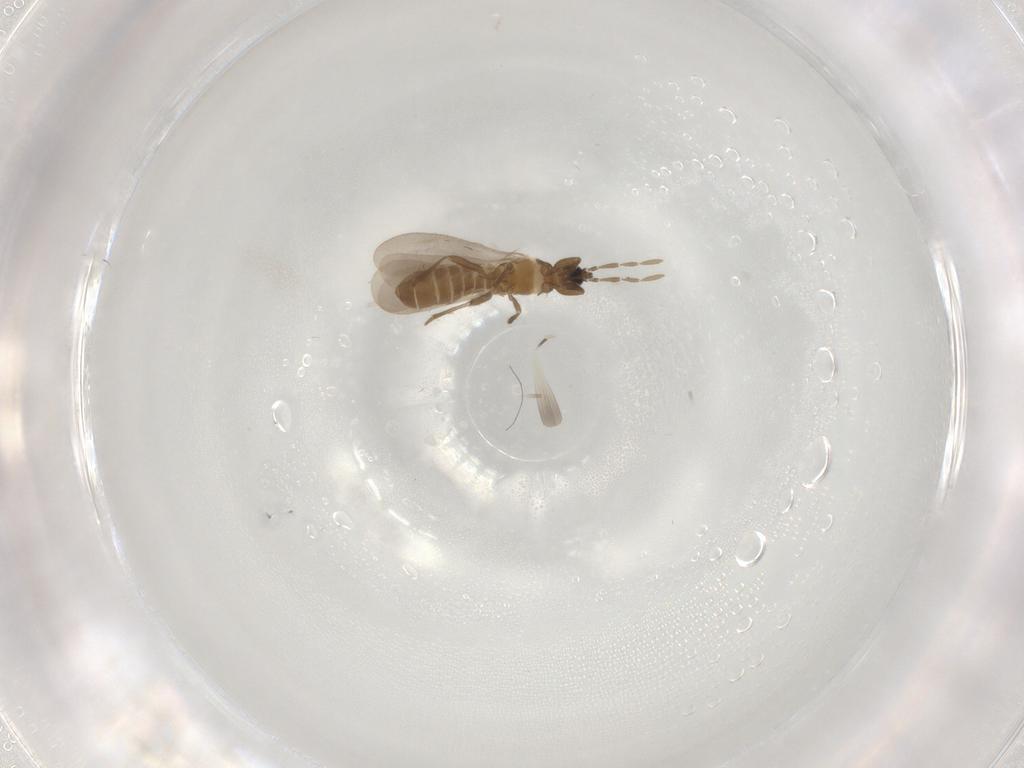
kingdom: Animalia
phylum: Arthropoda
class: Insecta
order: Hemiptera
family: Enicocephalidae
